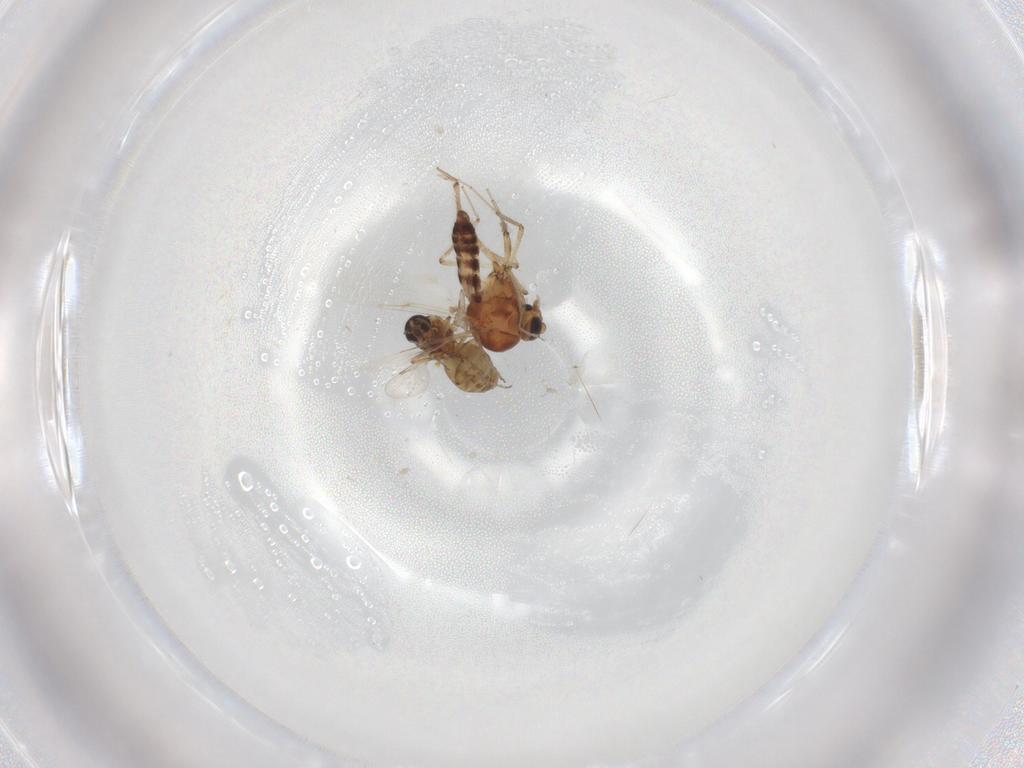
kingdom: Animalia
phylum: Arthropoda
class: Insecta
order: Diptera
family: Ceratopogonidae
